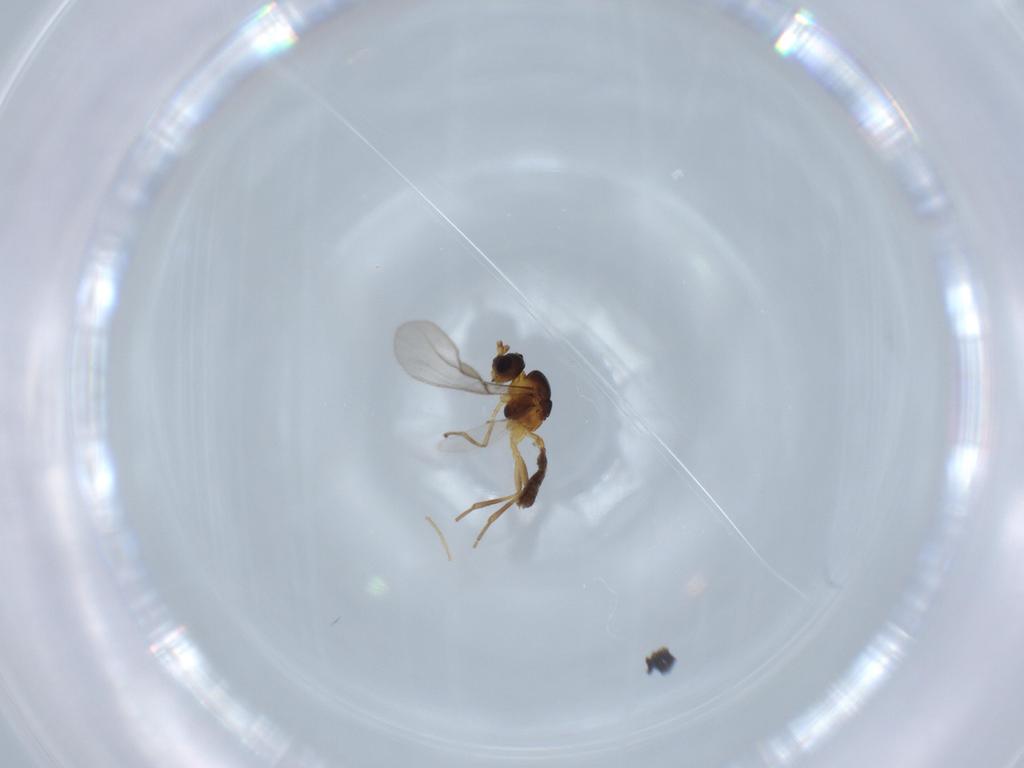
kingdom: Animalia
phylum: Arthropoda
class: Insecta
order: Hymenoptera
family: Braconidae
